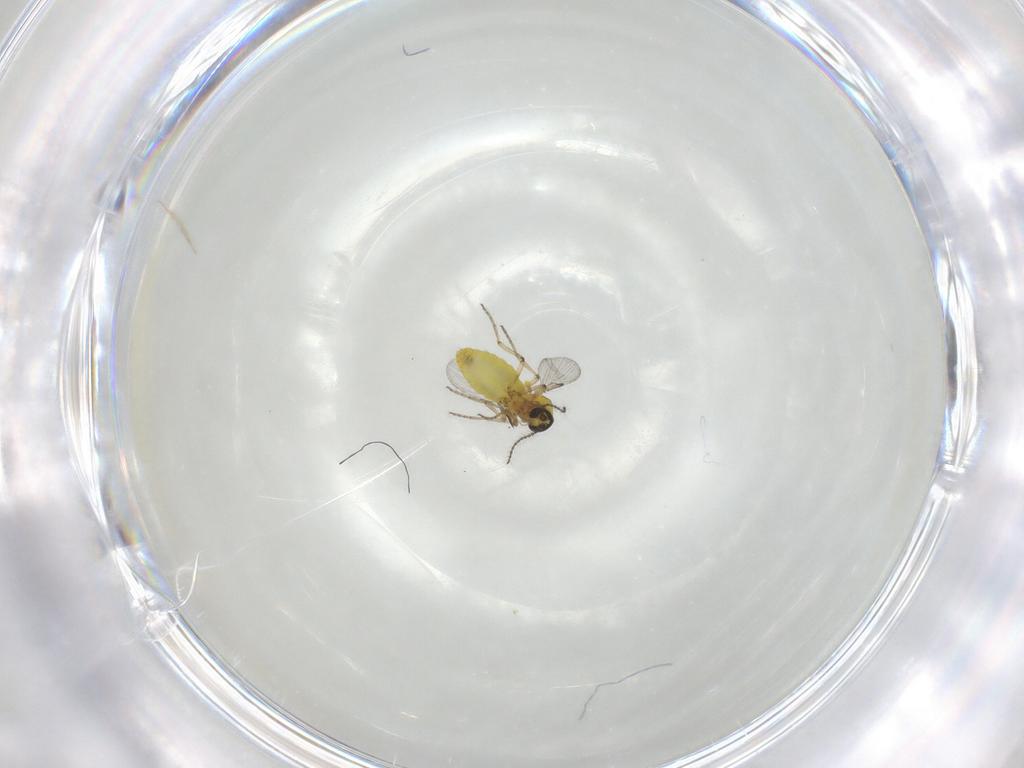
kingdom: Animalia
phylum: Arthropoda
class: Insecta
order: Diptera
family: Ceratopogonidae
